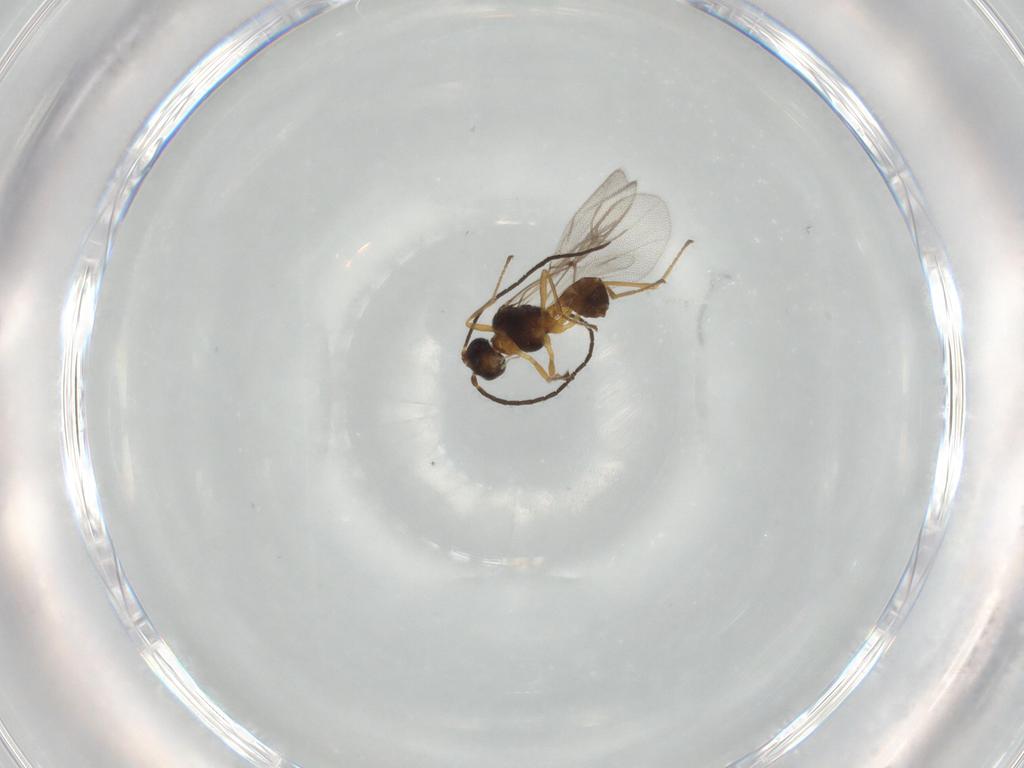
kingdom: Animalia
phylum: Arthropoda
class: Insecta
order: Hymenoptera
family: Braconidae
